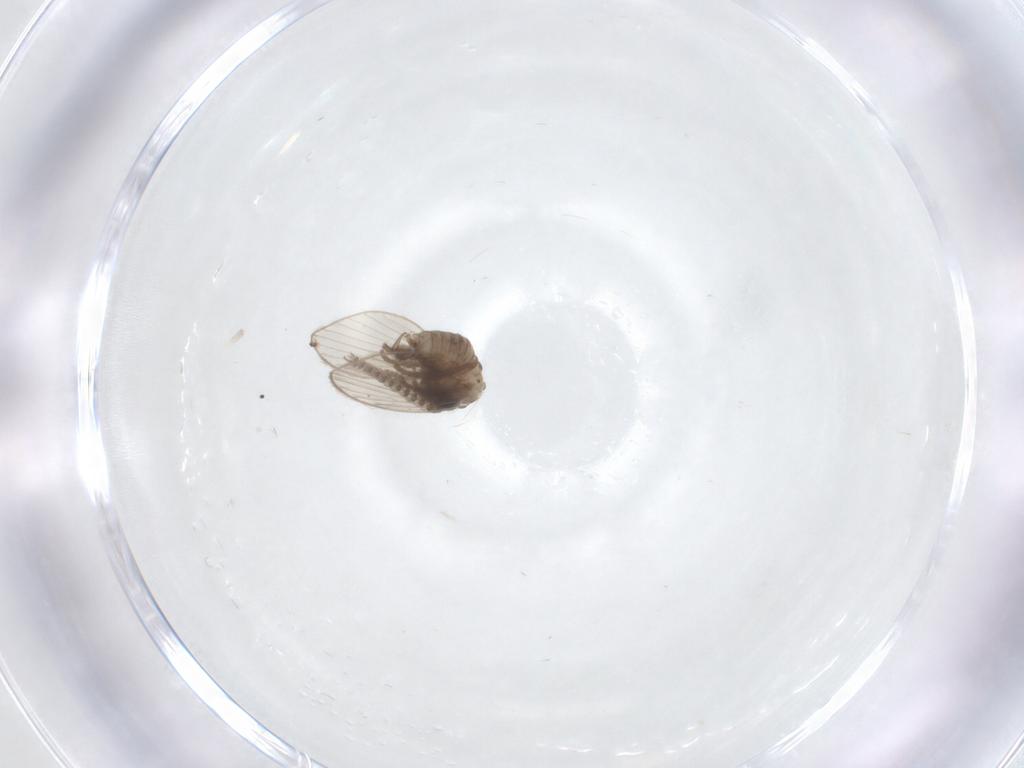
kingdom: Animalia
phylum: Arthropoda
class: Insecta
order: Diptera
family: Psychodidae
